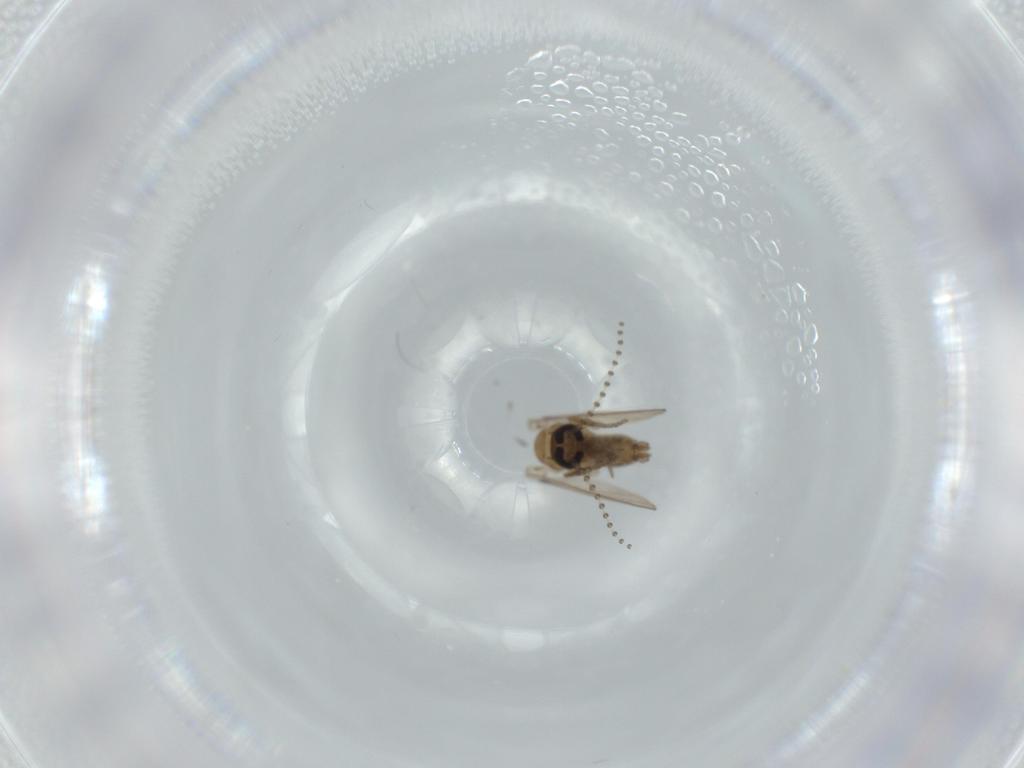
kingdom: Animalia
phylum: Arthropoda
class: Insecta
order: Diptera
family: Psychodidae
